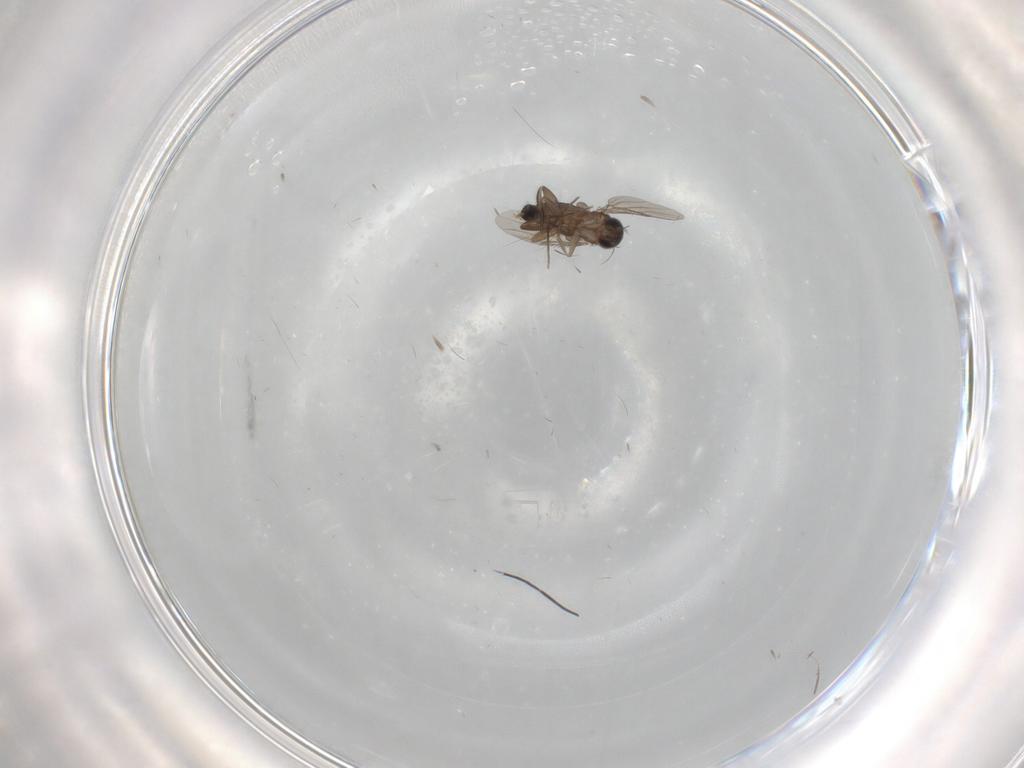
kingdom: Animalia
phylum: Arthropoda
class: Insecta
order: Diptera
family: Phoridae
